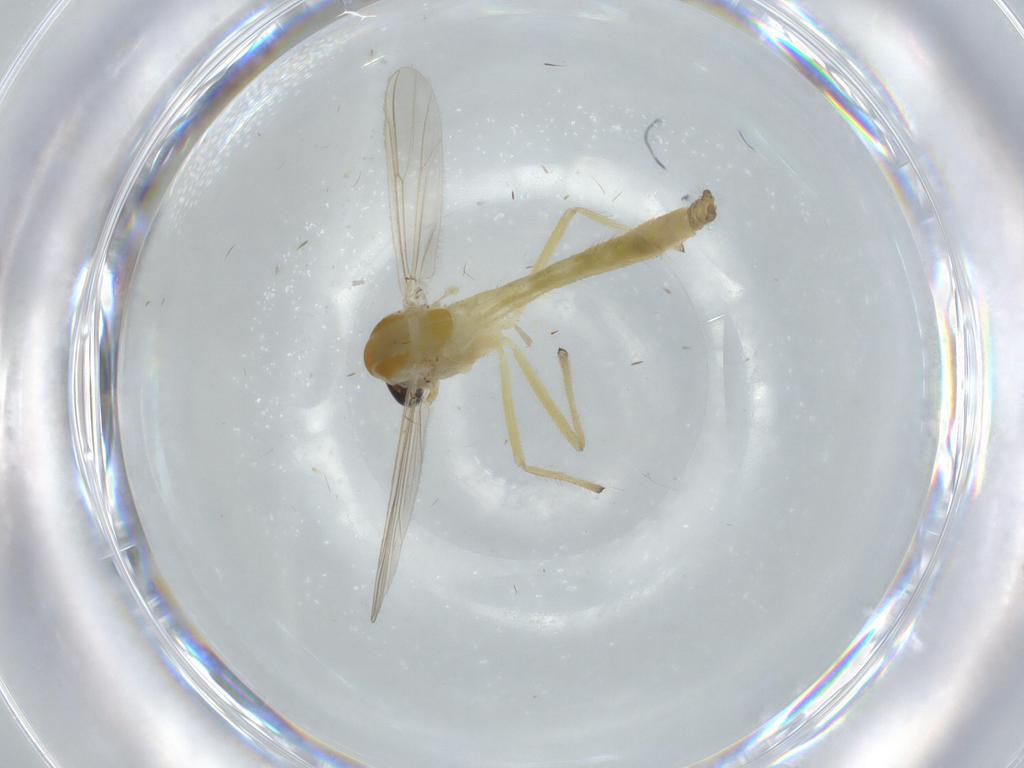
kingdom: Animalia
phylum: Arthropoda
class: Insecta
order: Diptera
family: Chironomidae
